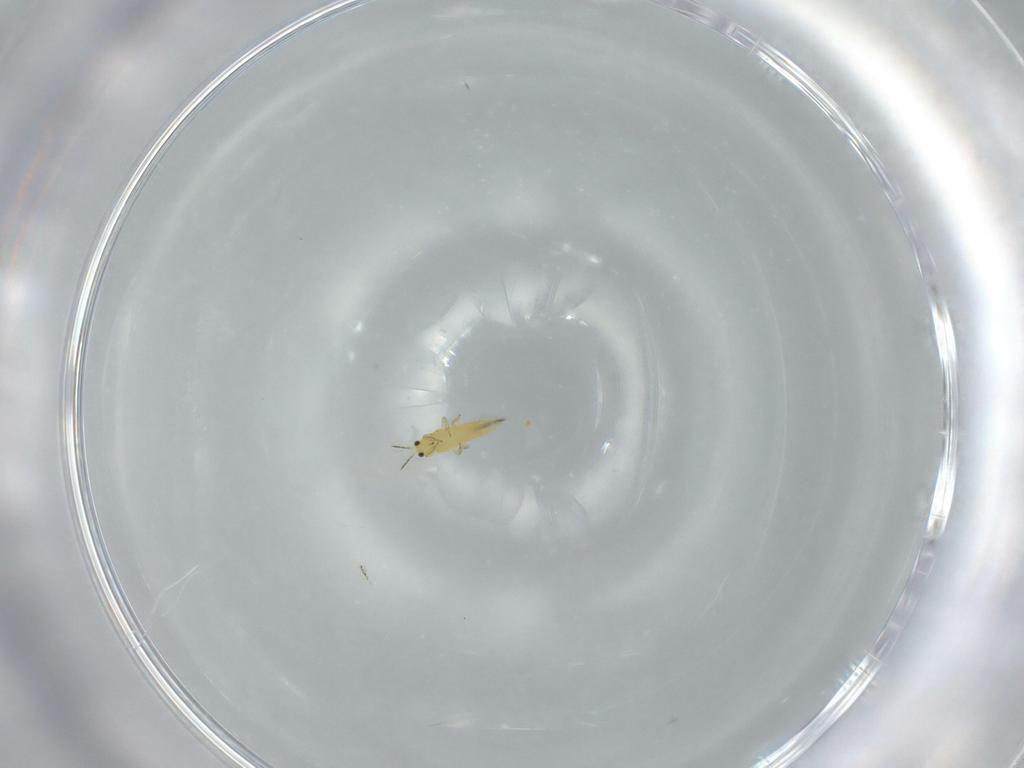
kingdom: Animalia
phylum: Arthropoda
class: Insecta
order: Thysanoptera
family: Thripidae
